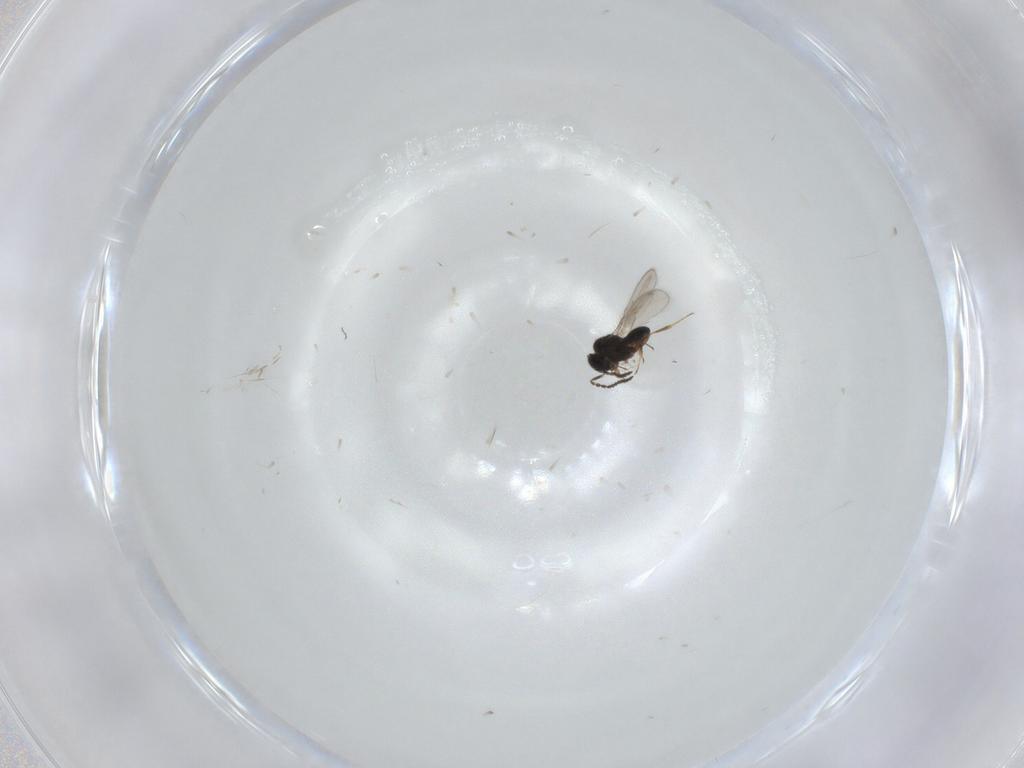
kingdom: Animalia
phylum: Arthropoda
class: Insecta
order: Hymenoptera
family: Scelionidae
